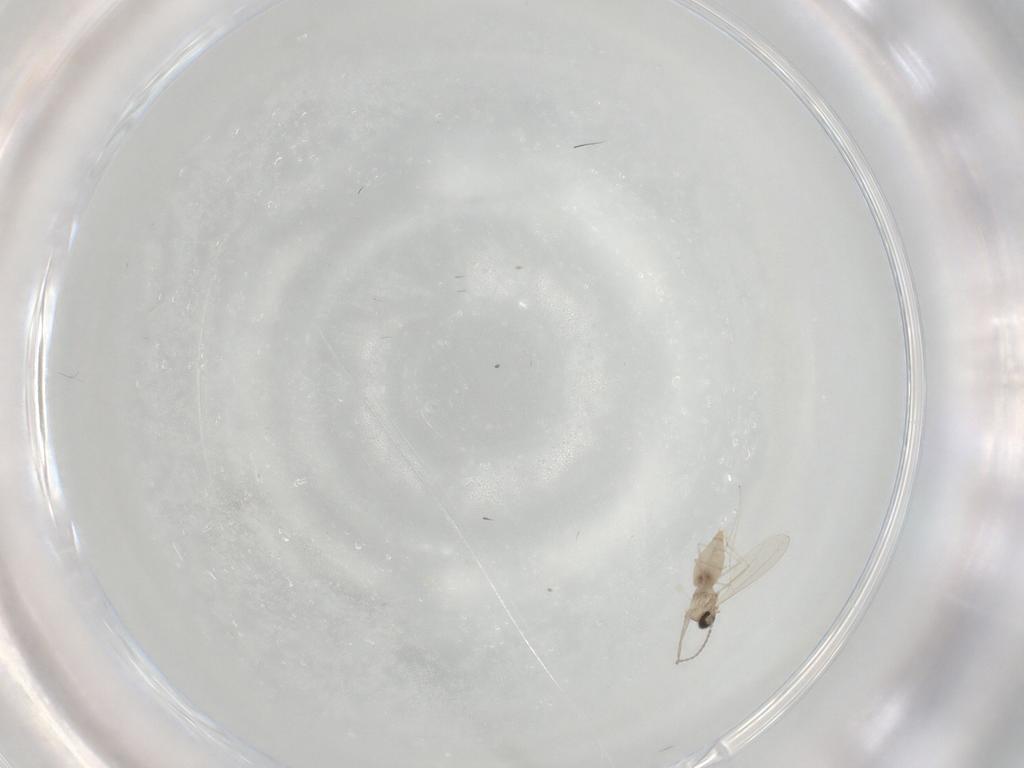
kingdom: Animalia
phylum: Arthropoda
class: Insecta
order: Diptera
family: Cecidomyiidae
